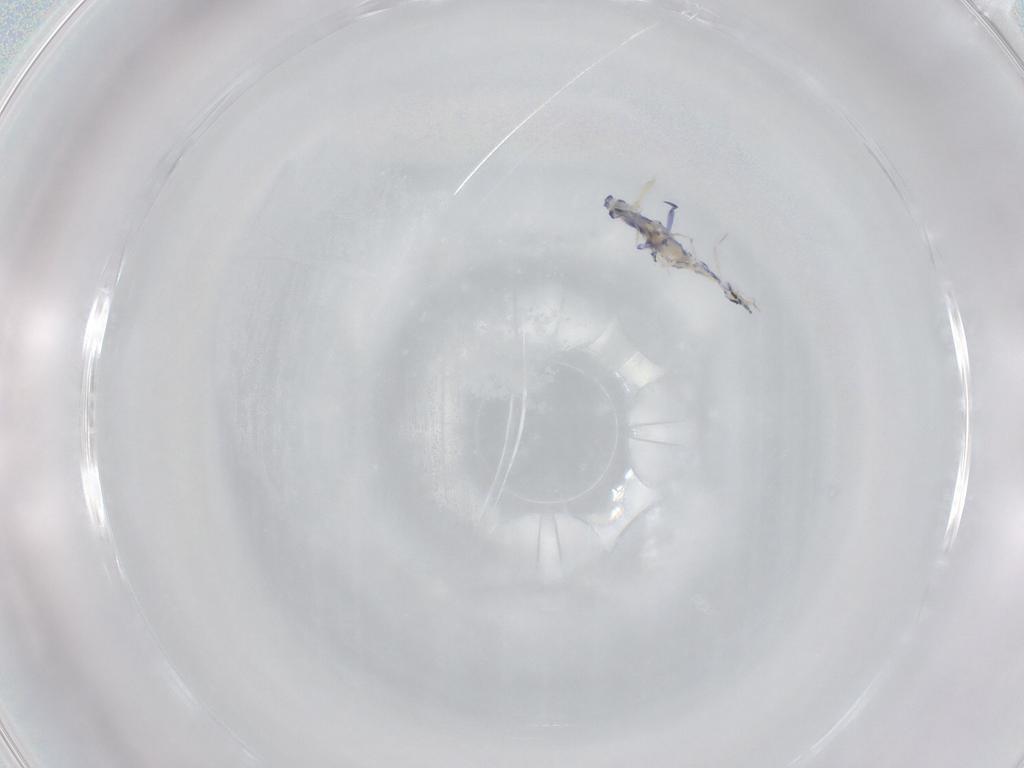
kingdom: Animalia
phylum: Arthropoda
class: Collembola
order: Entomobryomorpha
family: Entomobryidae
